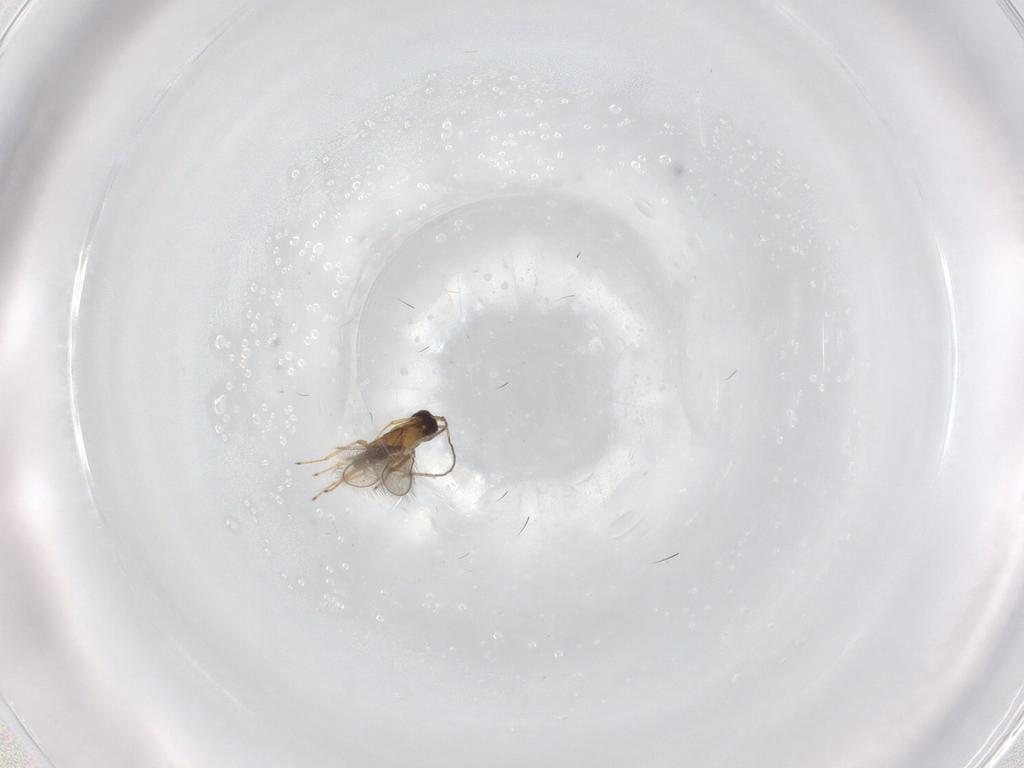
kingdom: Animalia
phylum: Arthropoda
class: Insecta
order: Hymenoptera
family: Mymaridae
